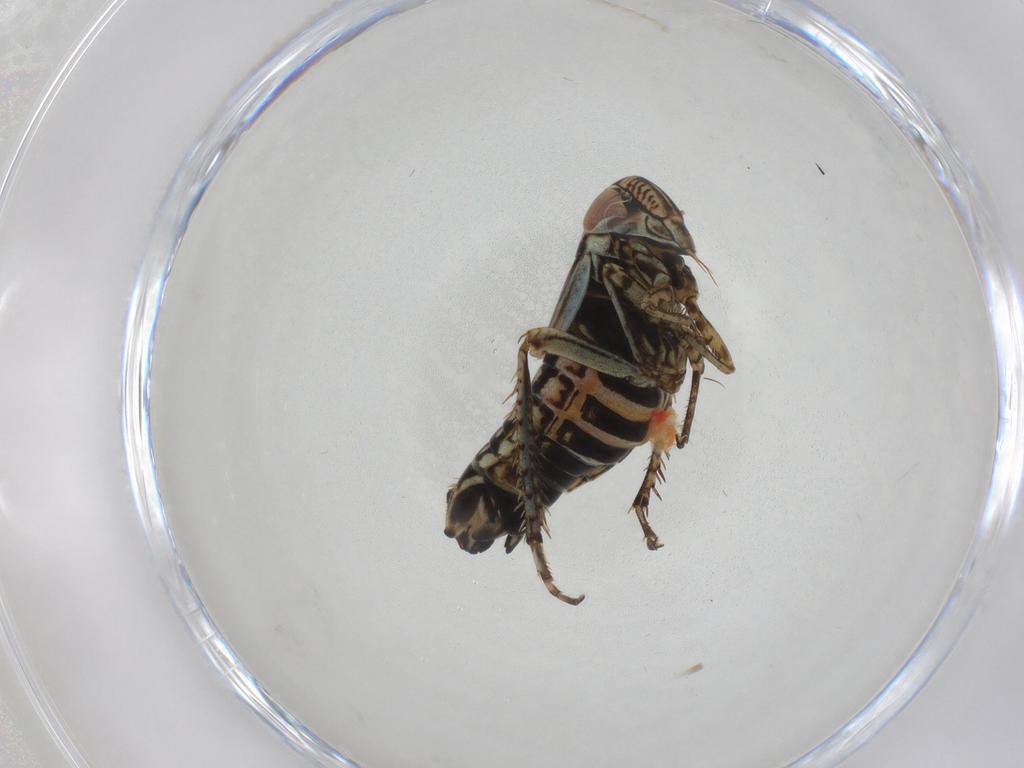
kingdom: Animalia
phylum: Arthropoda
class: Insecta
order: Hemiptera
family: Cicadellidae
